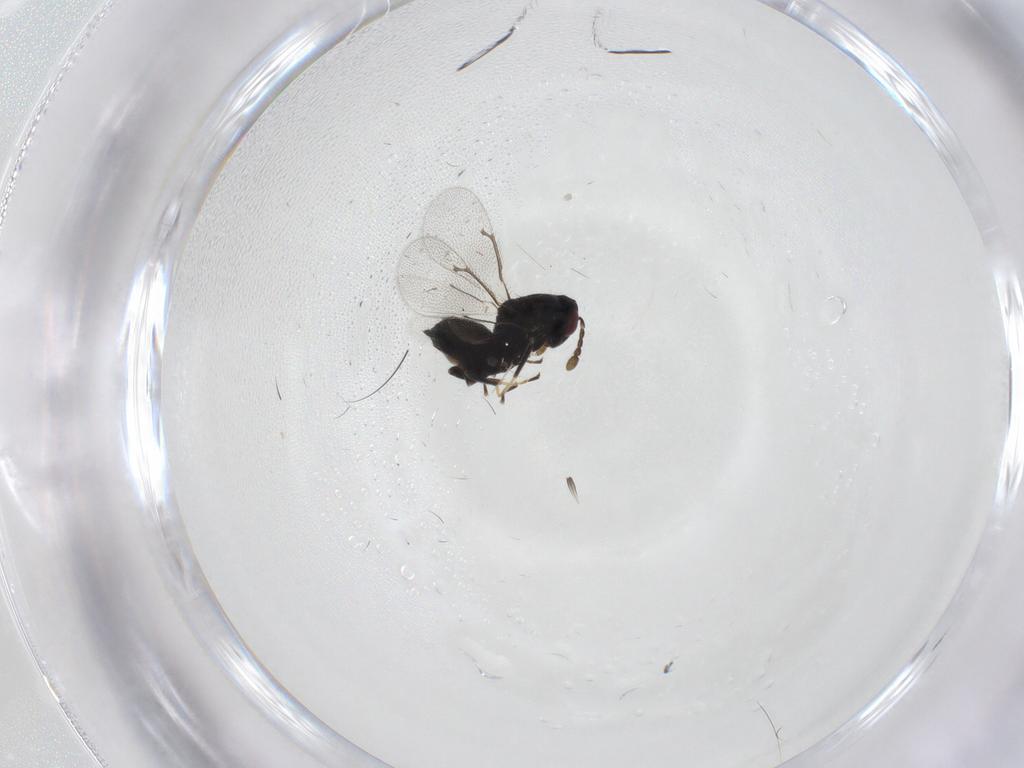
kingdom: Animalia
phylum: Arthropoda
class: Insecta
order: Hymenoptera
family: Eulophidae
